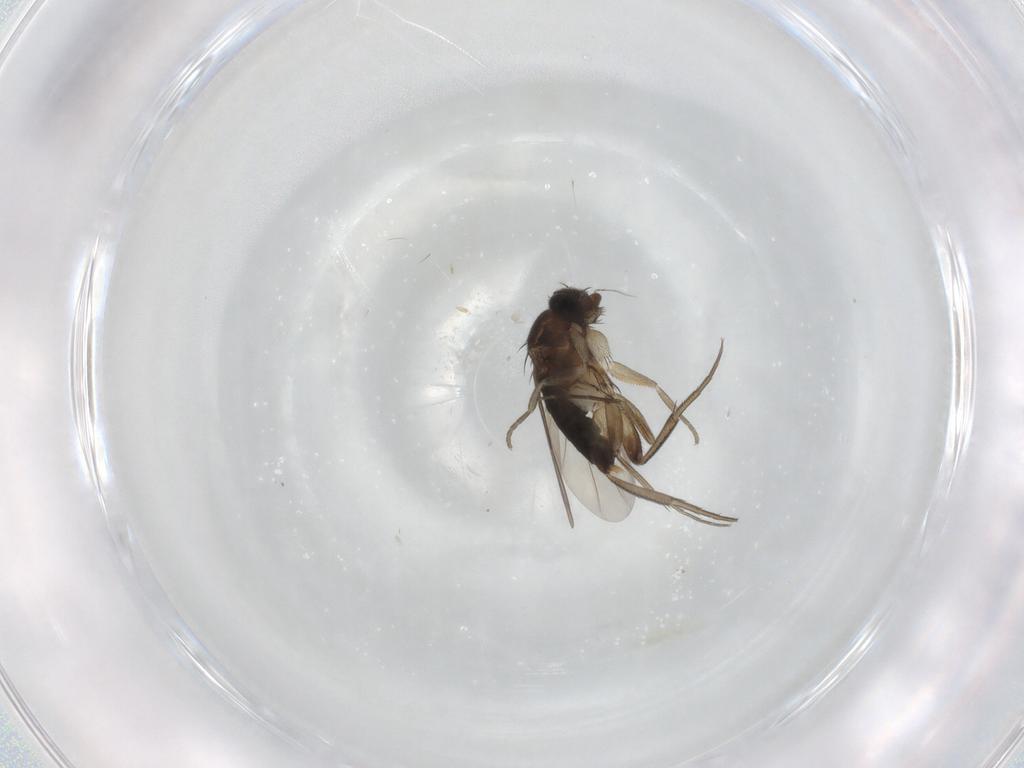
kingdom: Animalia
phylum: Arthropoda
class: Insecta
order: Diptera
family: Phoridae
